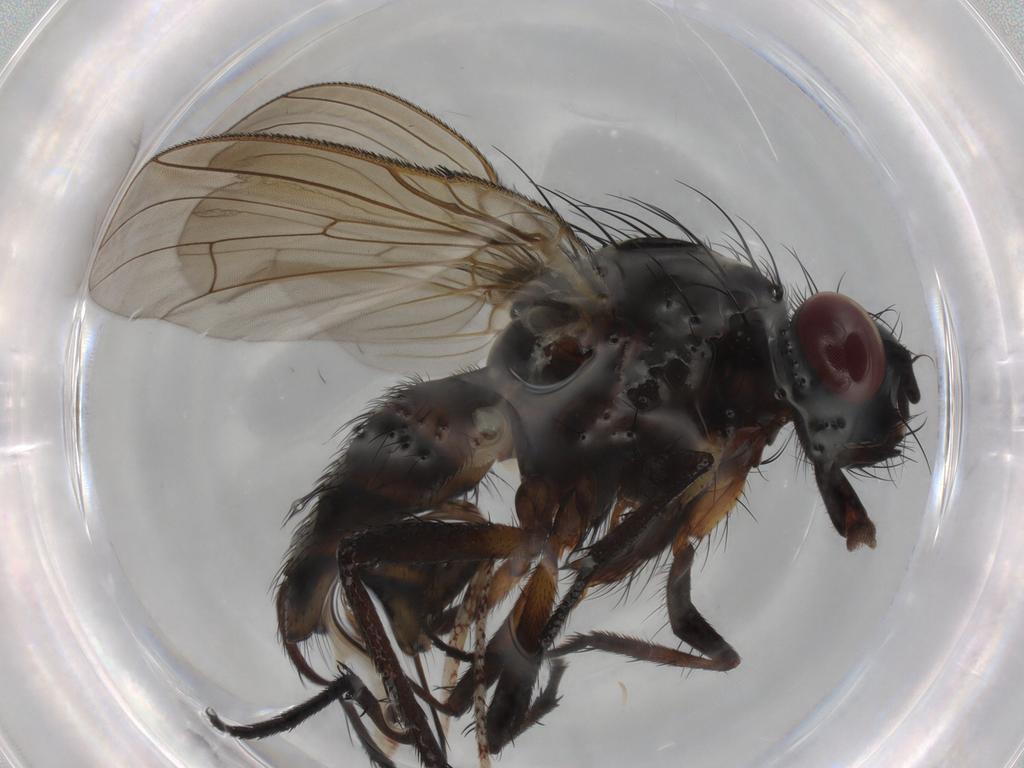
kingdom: Animalia
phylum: Arthropoda
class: Insecta
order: Diptera
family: Anthomyiidae
